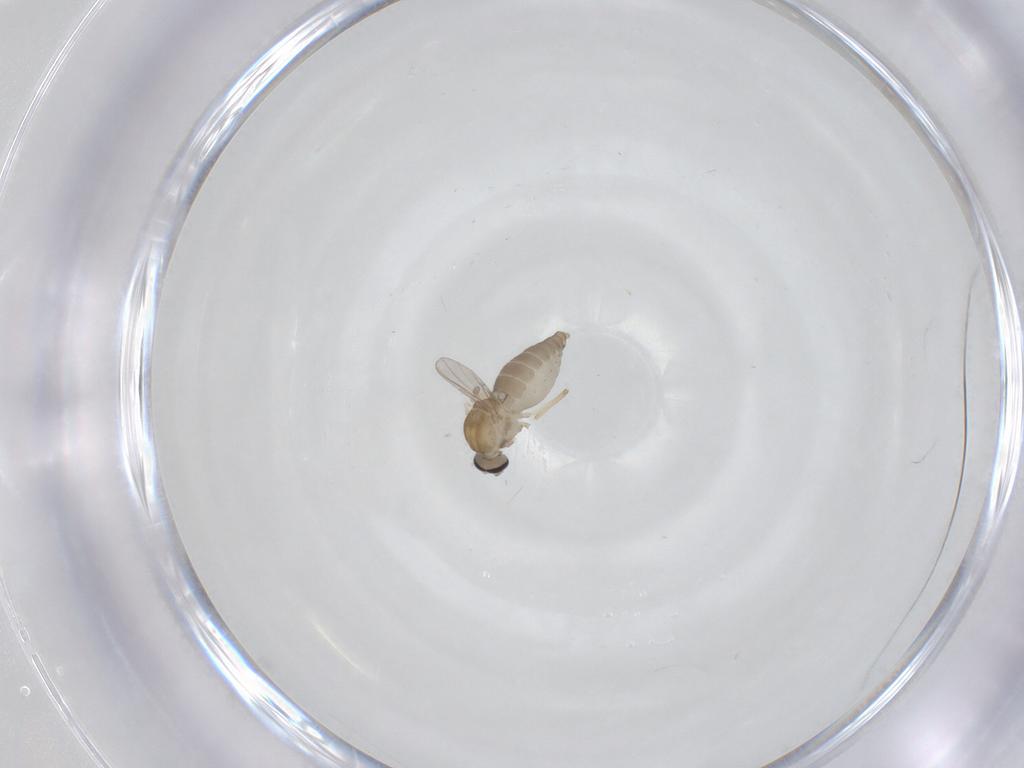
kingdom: Animalia
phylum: Arthropoda
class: Insecta
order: Diptera
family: Ceratopogonidae
